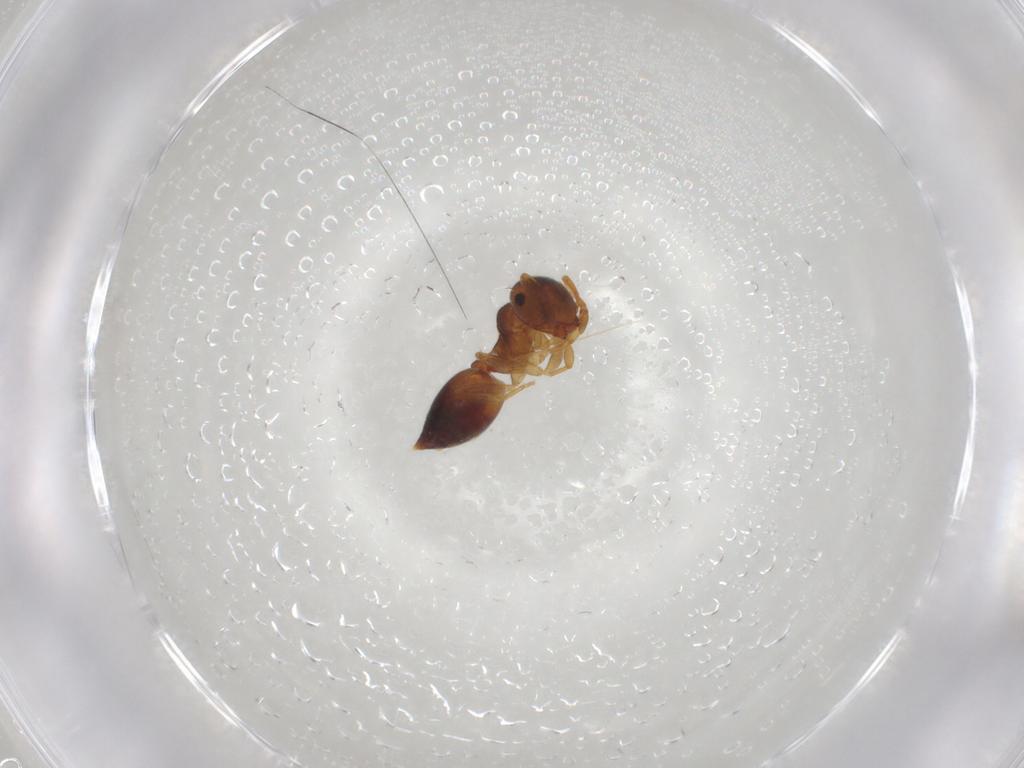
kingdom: Animalia
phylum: Arthropoda
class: Insecta
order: Hymenoptera
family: Formicidae
